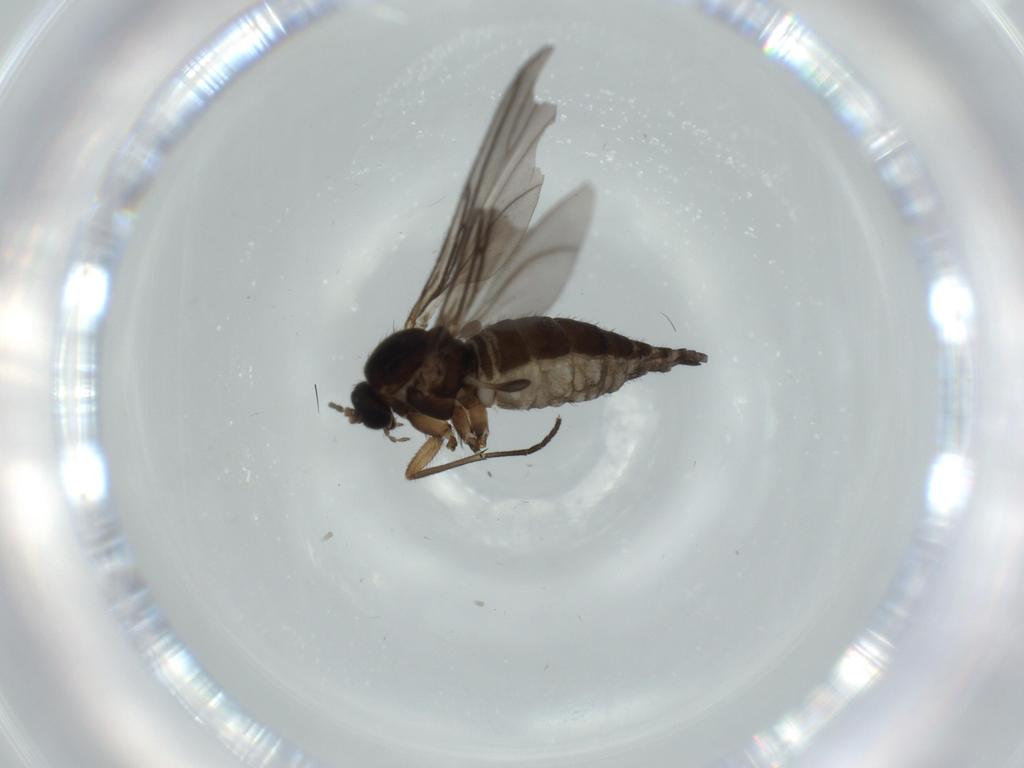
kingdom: Animalia
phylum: Arthropoda
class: Insecta
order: Diptera
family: Sciaridae
